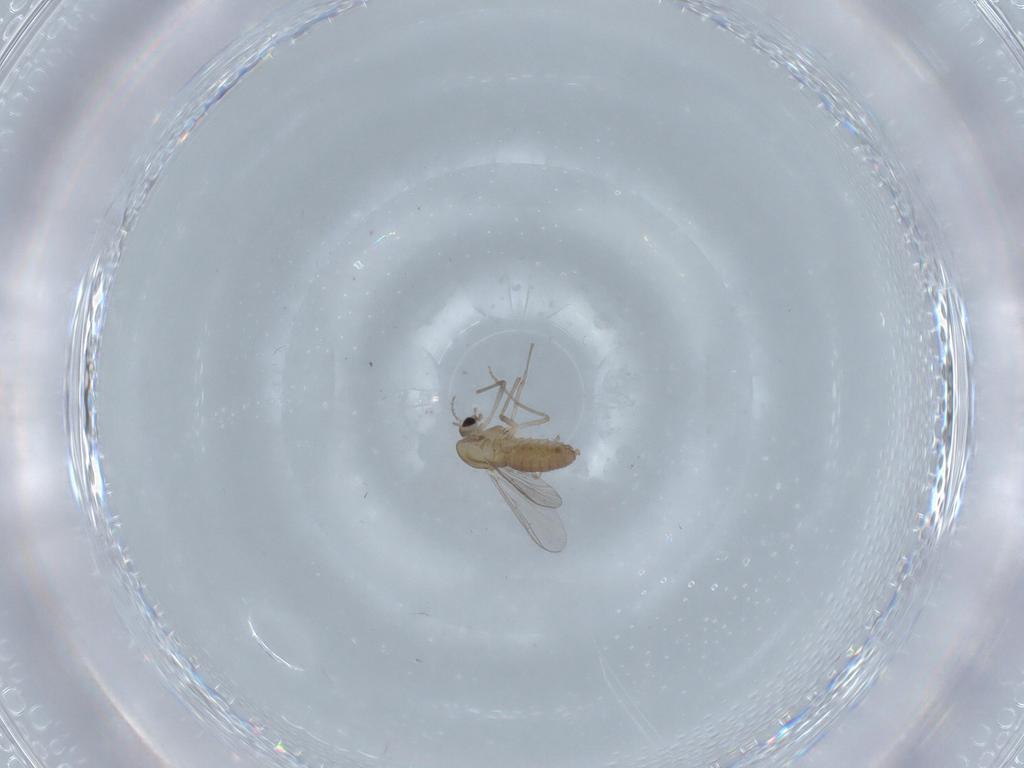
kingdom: Animalia
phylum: Arthropoda
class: Insecta
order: Diptera
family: Chironomidae
